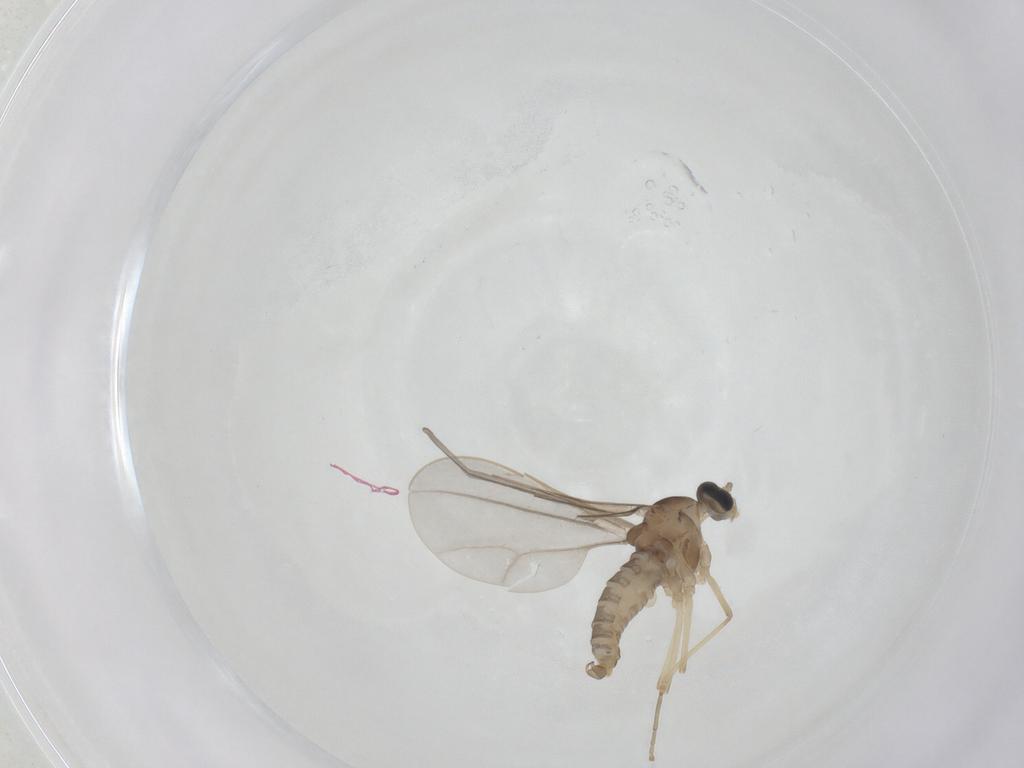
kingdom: Animalia
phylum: Arthropoda
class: Insecta
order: Diptera
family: Cecidomyiidae
